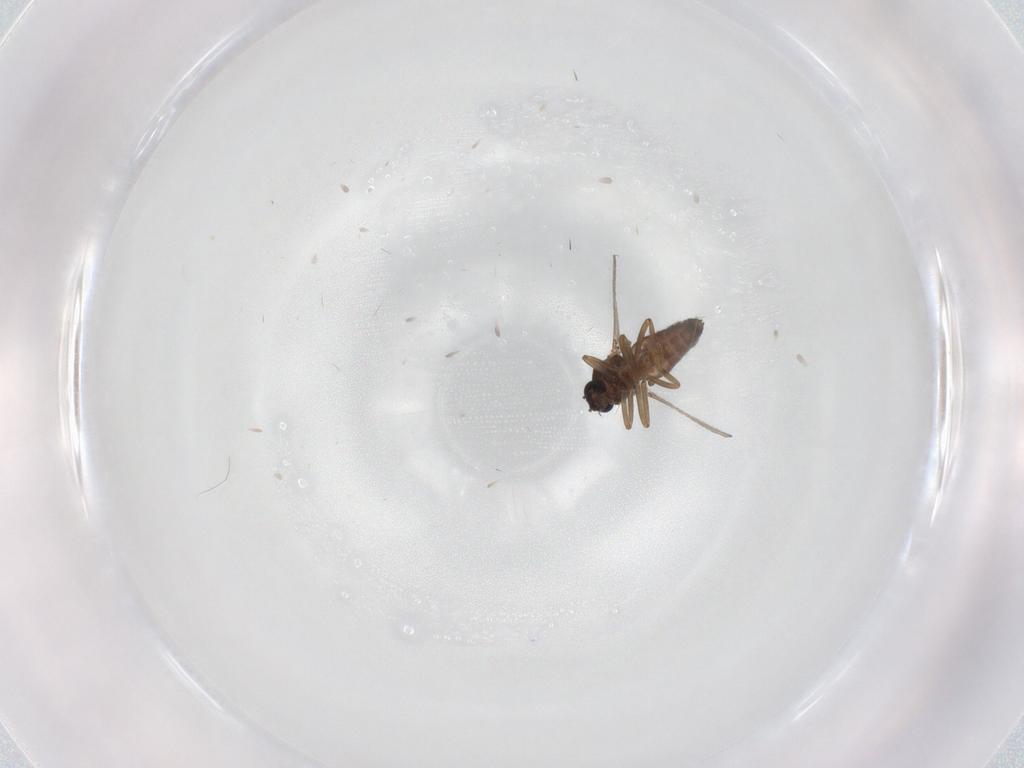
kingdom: Animalia
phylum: Arthropoda
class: Insecta
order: Diptera
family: Ceratopogonidae
